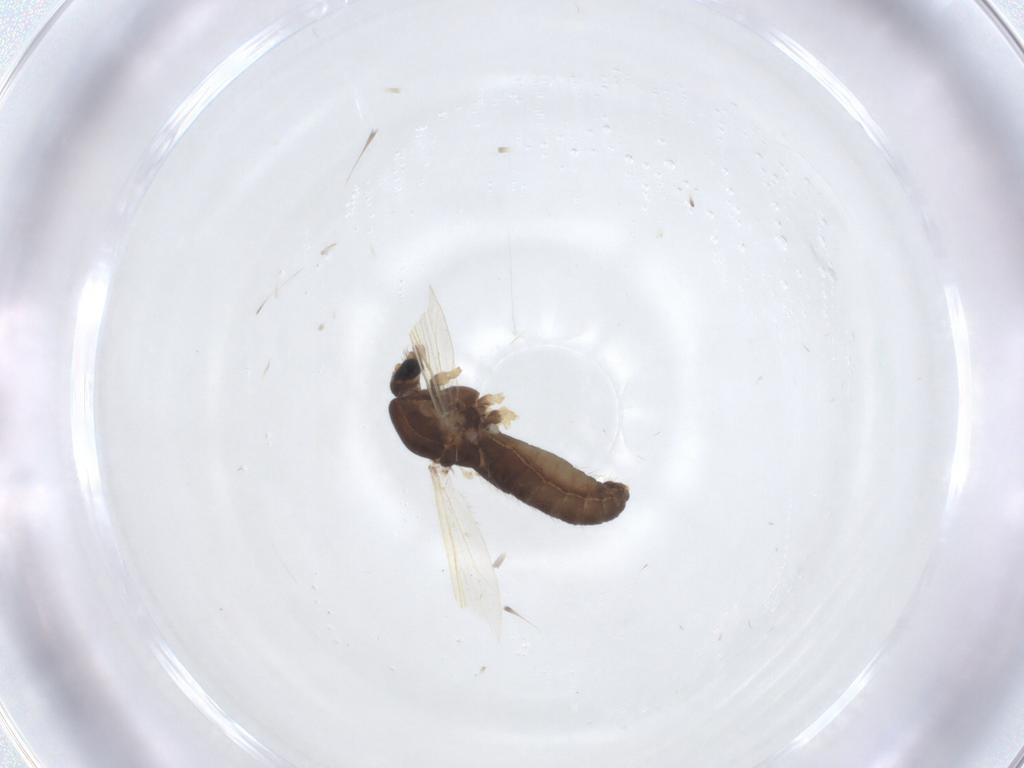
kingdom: Animalia
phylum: Arthropoda
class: Insecta
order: Diptera
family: Chironomidae
